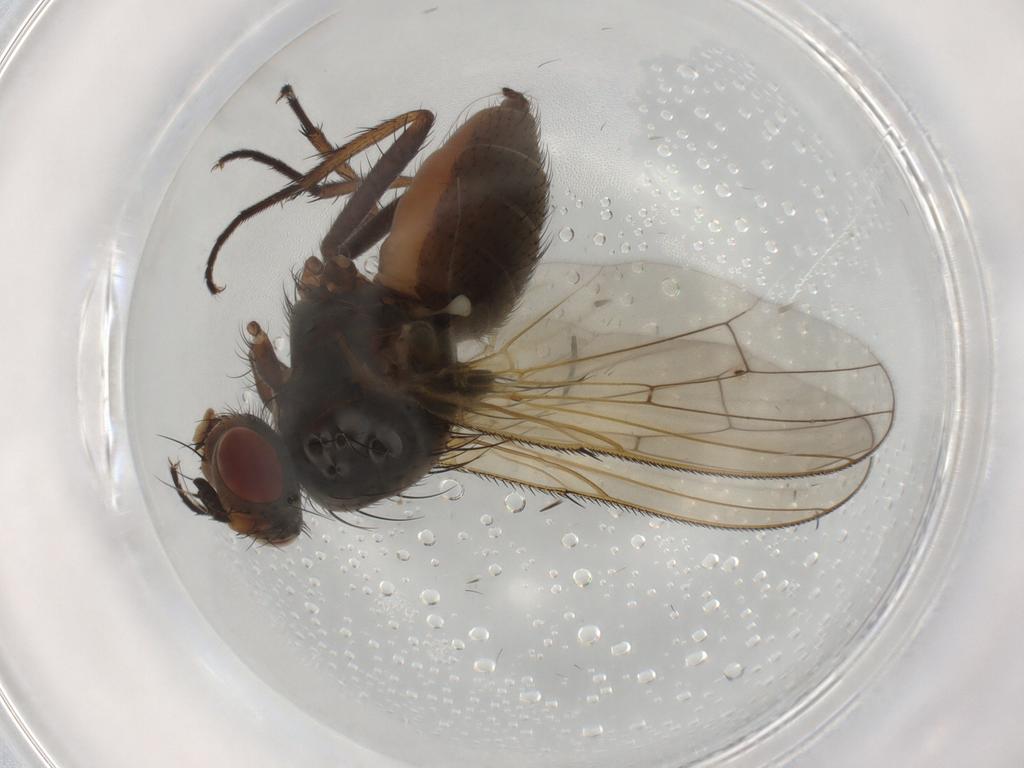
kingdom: Animalia
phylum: Arthropoda
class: Insecta
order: Diptera
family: Anthomyiidae
